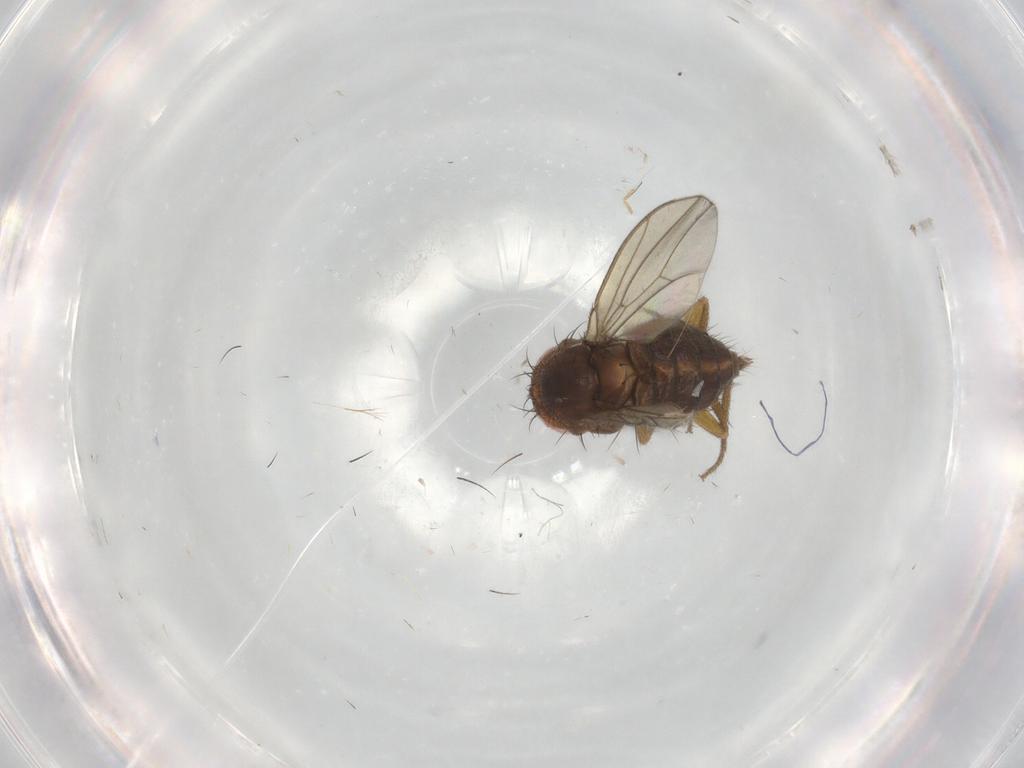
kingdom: Animalia
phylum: Arthropoda
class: Insecta
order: Diptera
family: Drosophilidae
